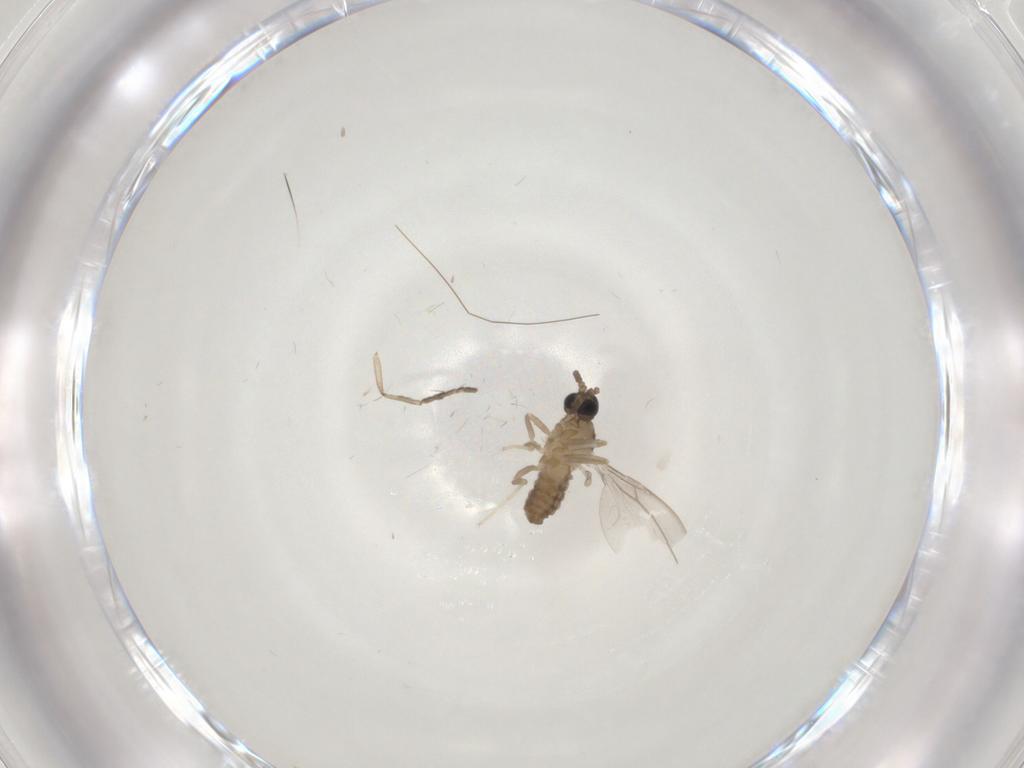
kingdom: Animalia
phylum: Arthropoda
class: Insecta
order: Diptera
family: Cecidomyiidae
